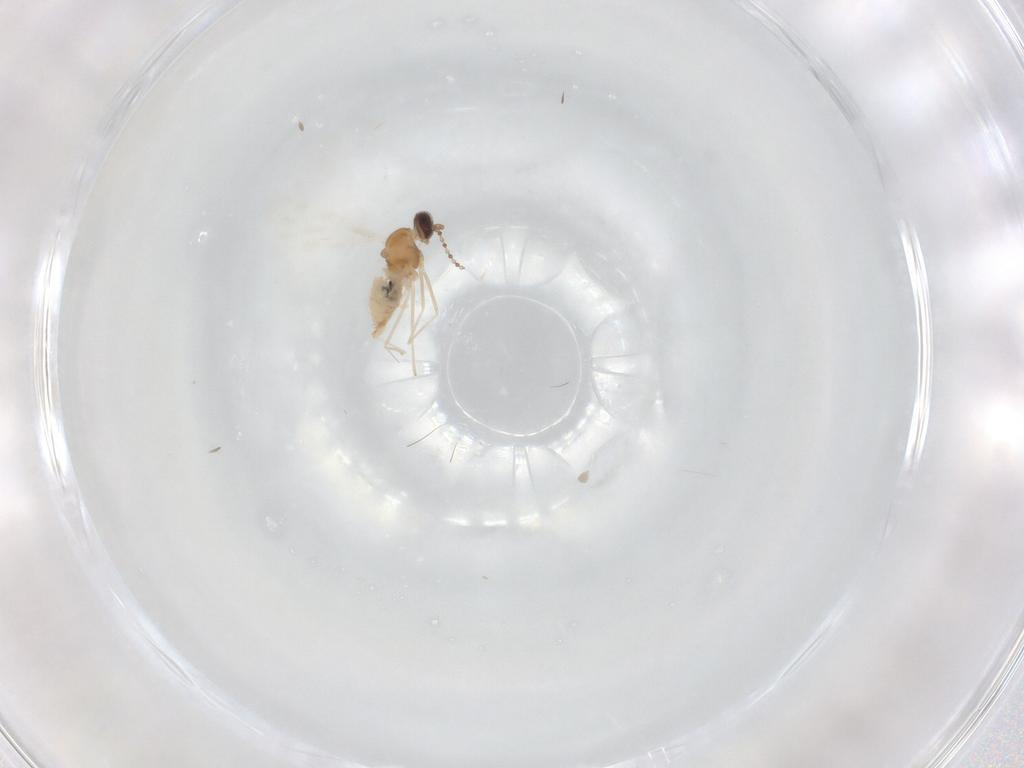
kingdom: Animalia
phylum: Arthropoda
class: Insecta
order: Diptera
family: Cecidomyiidae
